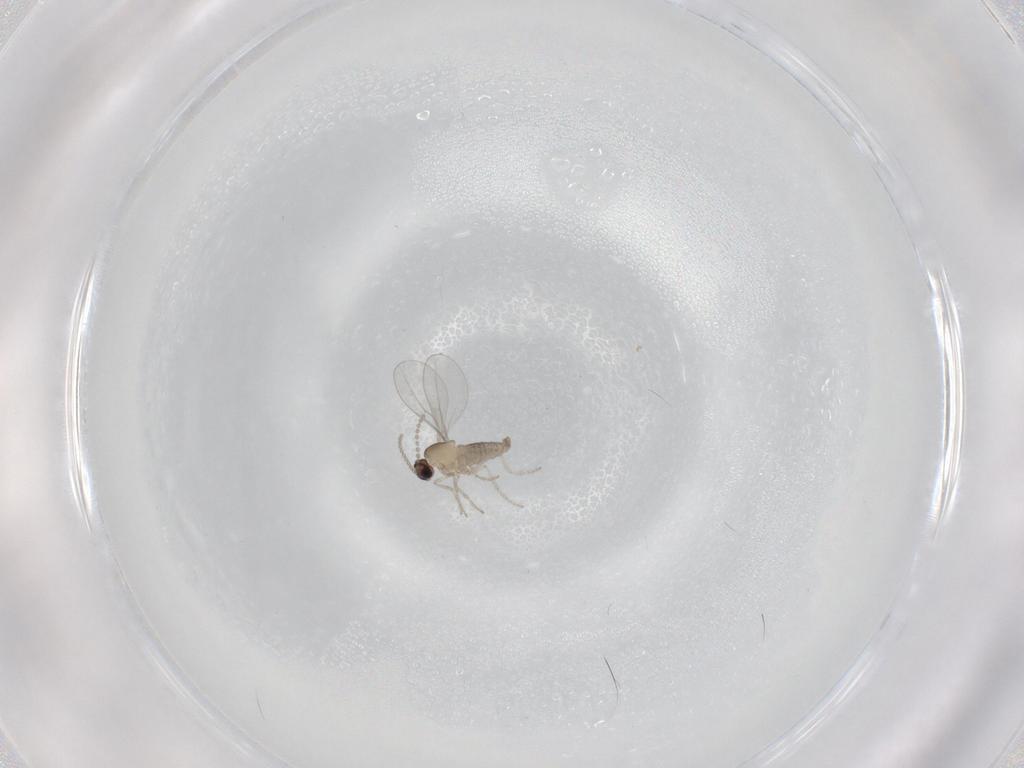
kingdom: Animalia
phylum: Arthropoda
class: Insecta
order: Diptera
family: Cecidomyiidae
